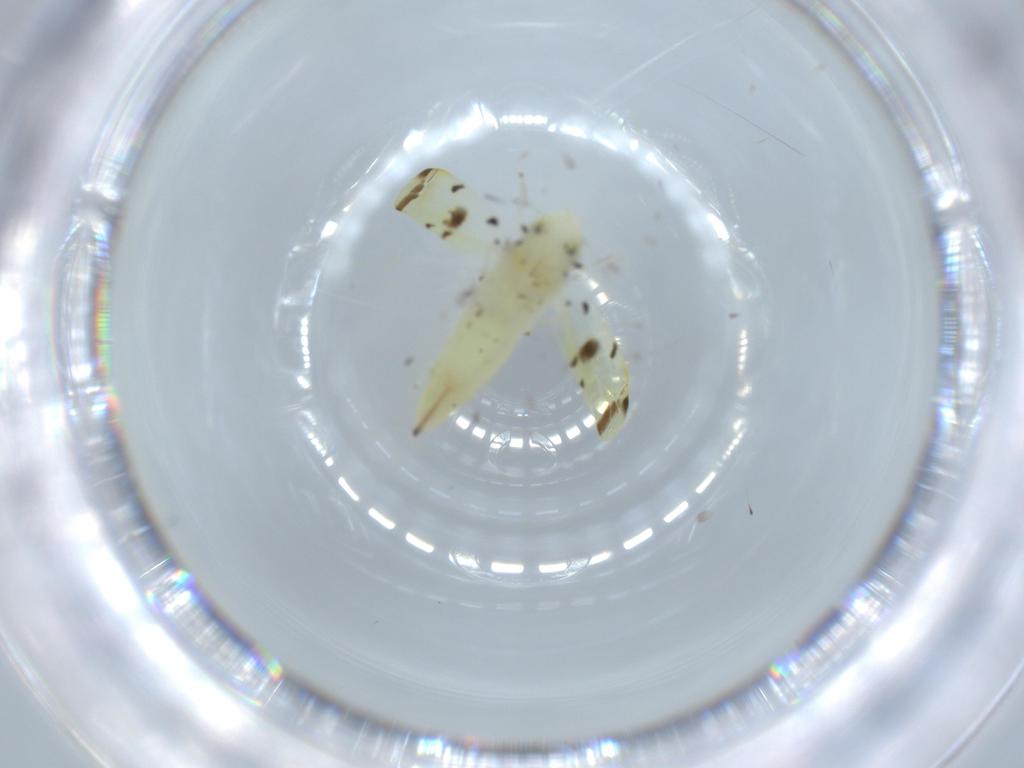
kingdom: Animalia
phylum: Arthropoda
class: Insecta
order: Hemiptera
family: Cicadellidae
